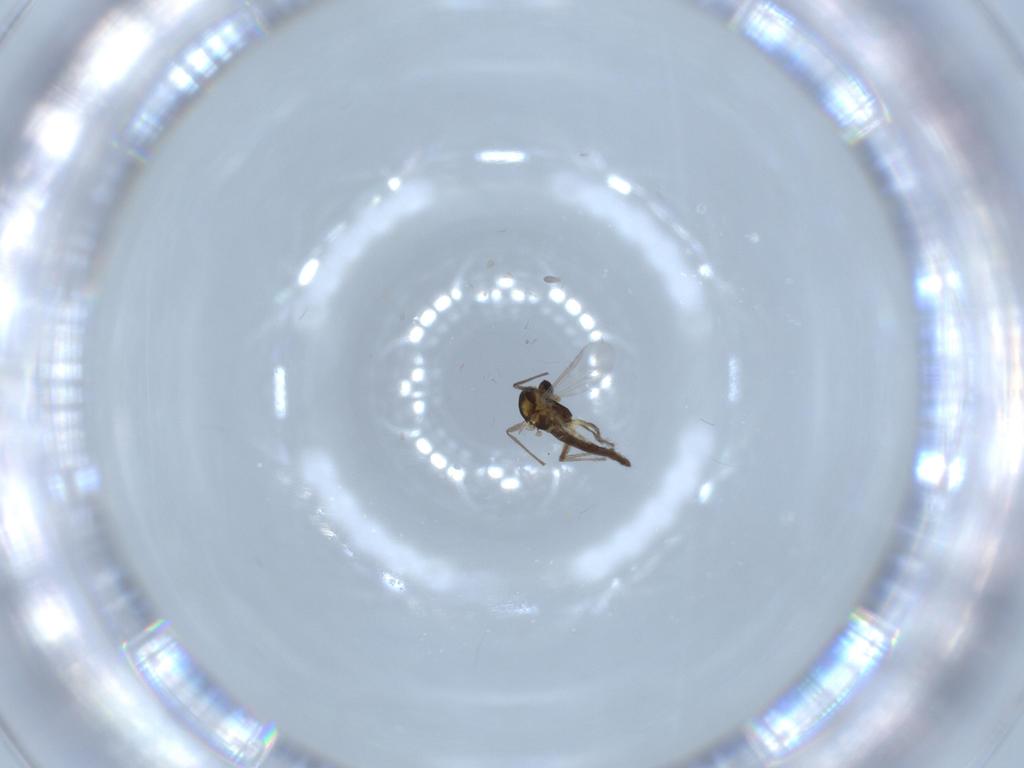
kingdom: Animalia
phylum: Arthropoda
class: Insecta
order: Diptera
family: Chironomidae
